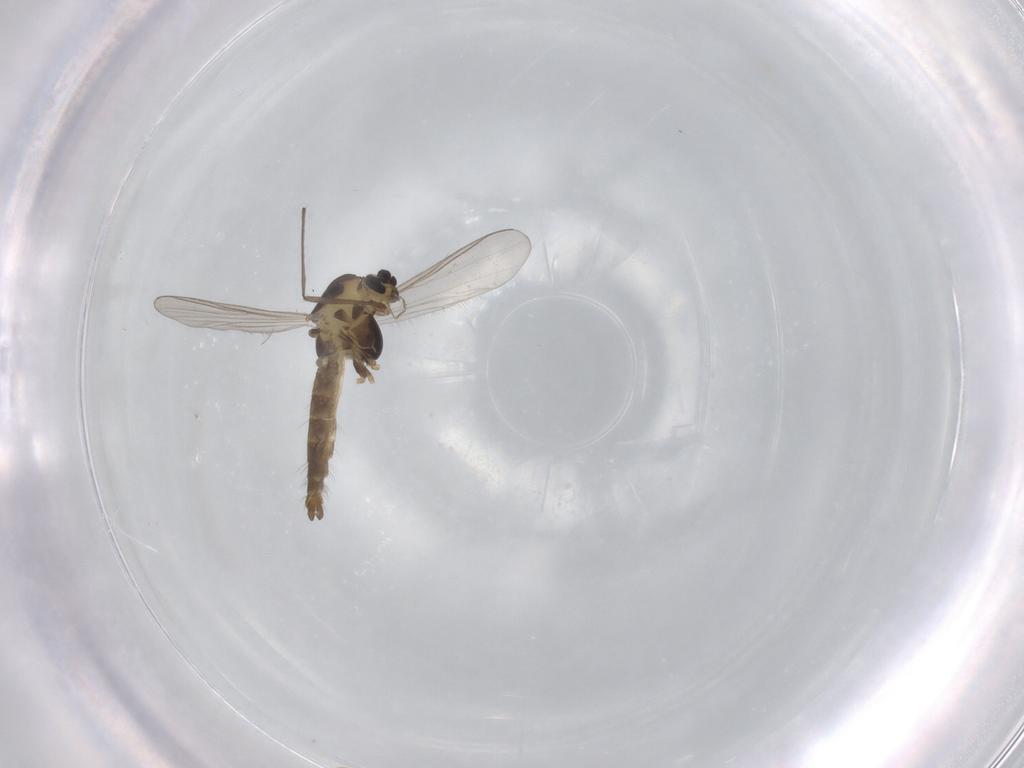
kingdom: Animalia
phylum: Arthropoda
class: Insecta
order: Diptera
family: Chironomidae
